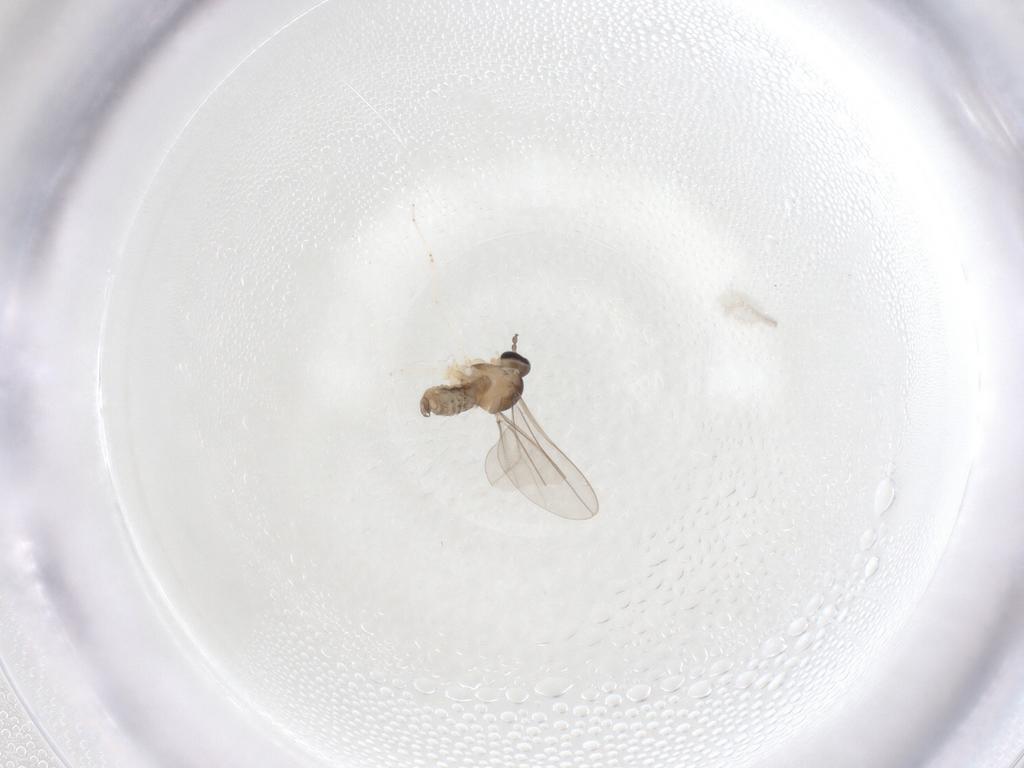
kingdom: Animalia
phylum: Arthropoda
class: Insecta
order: Diptera
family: Cecidomyiidae
